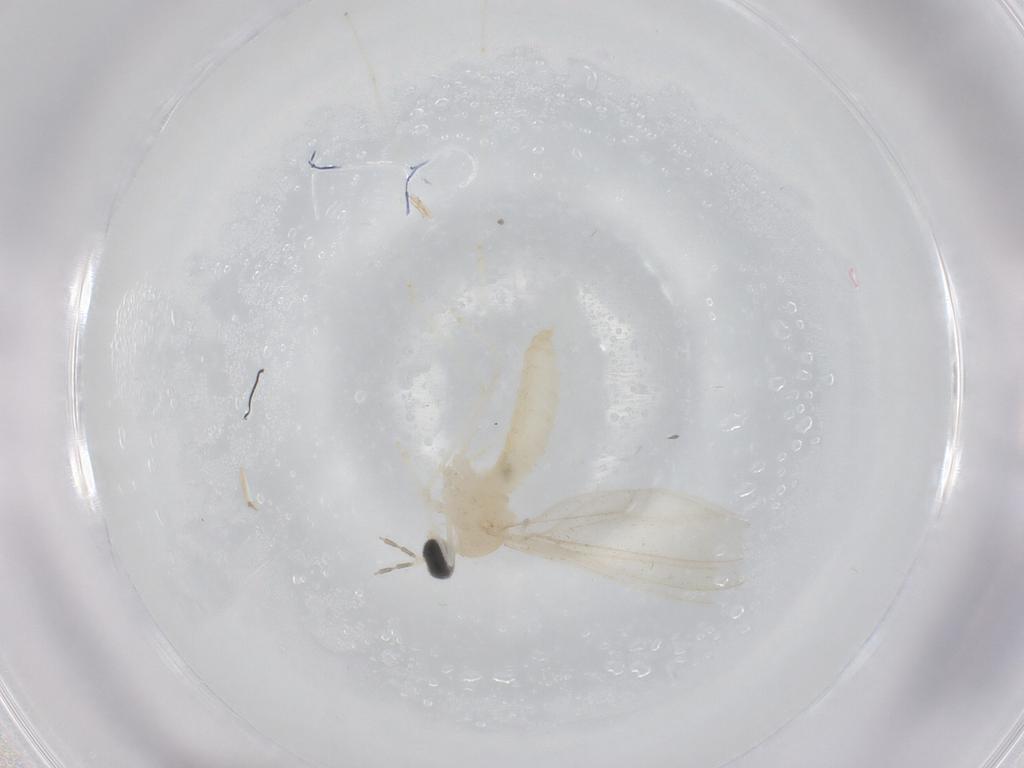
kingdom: Animalia
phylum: Arthropoda
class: Insecta
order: Diptera
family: Cecidomyiidae
